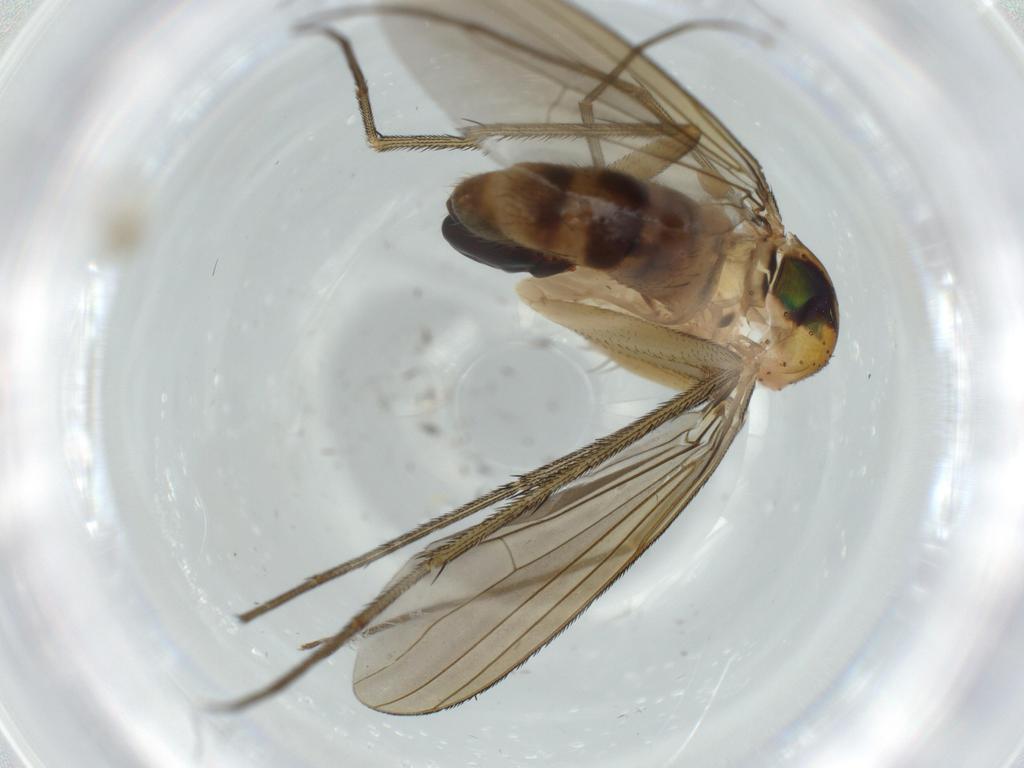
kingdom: Animalia
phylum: Arthropoda
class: Insecta
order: Diptera
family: Dolichopodidae
